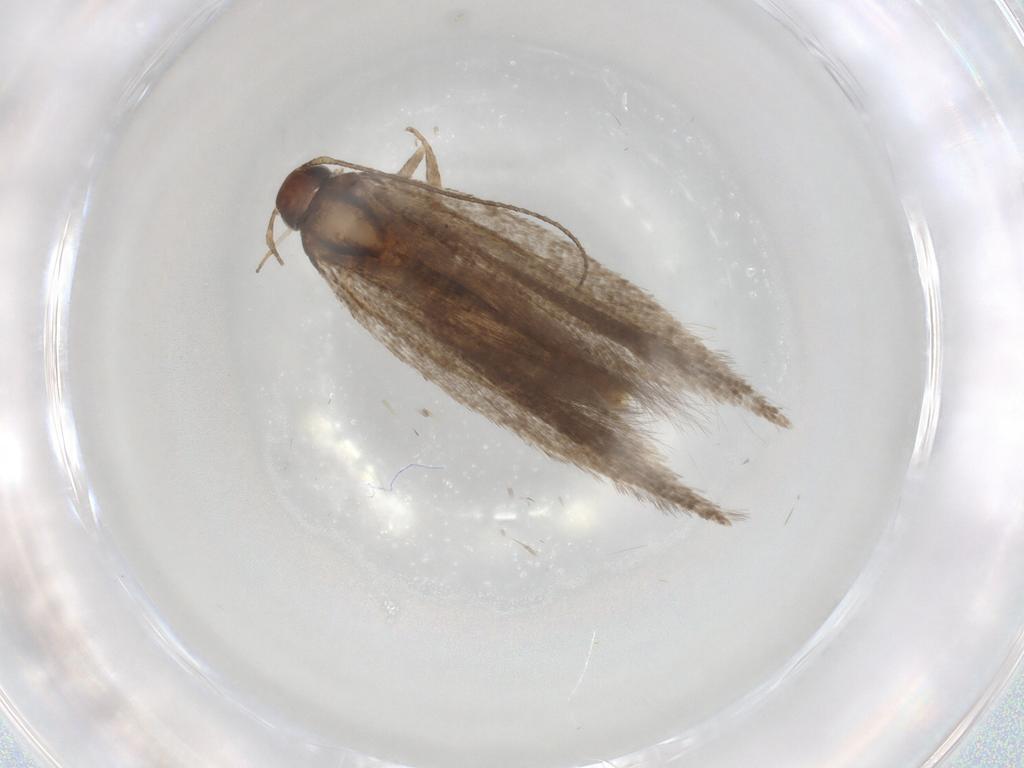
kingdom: Animalia
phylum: Arthropoda
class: Insecta
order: Lepidoptera
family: Gelechiidae
